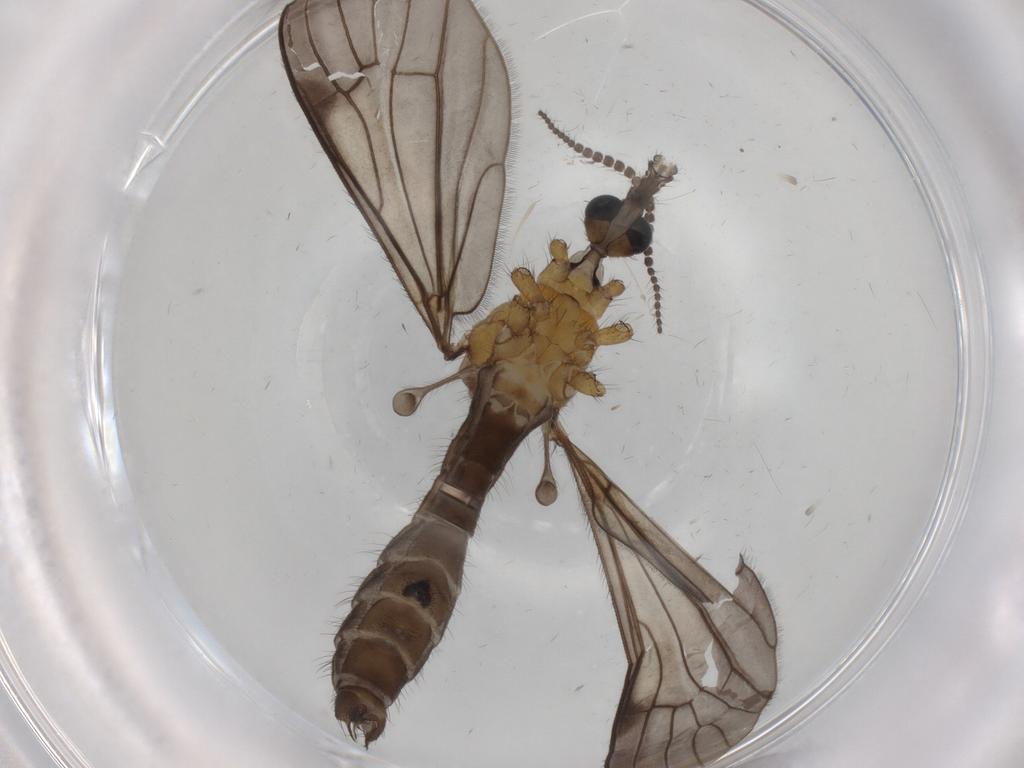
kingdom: Animalia
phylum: Arthropoda
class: Insecta
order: Diptera
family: Limoniidae
